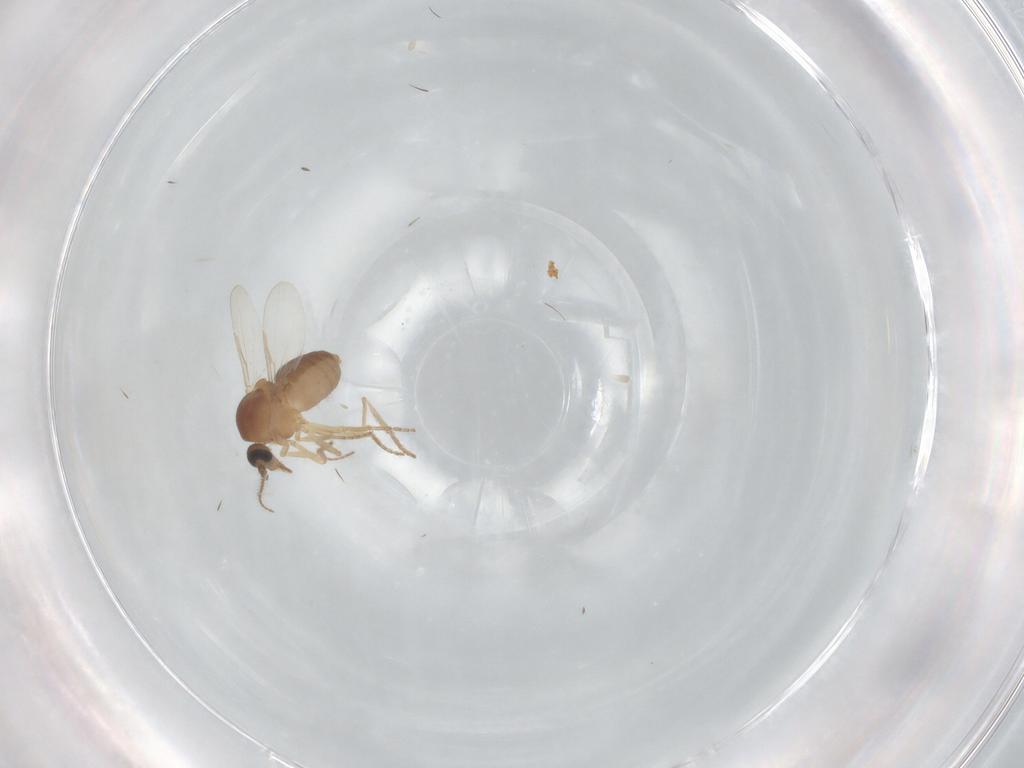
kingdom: Animalia
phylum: Arthropoda
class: Insecta
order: Diptera
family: Ceratopogonidae
